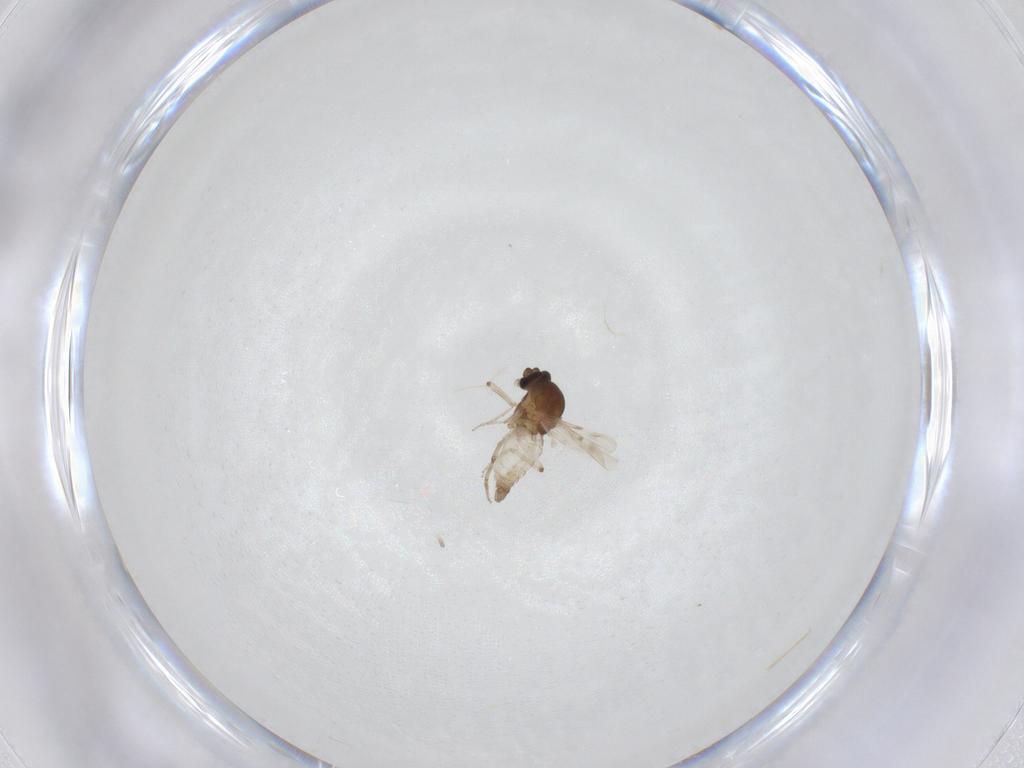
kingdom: Animalia
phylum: Arthropoda
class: Insecta
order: Diptera
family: Ceratopogonidae
